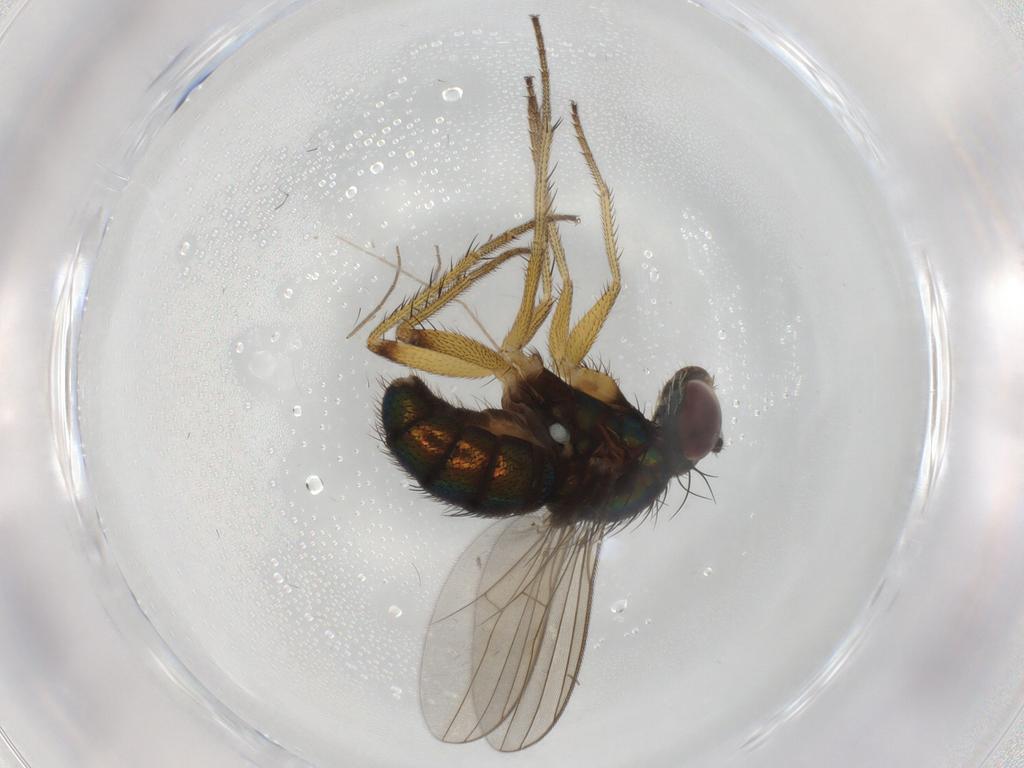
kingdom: Animalia
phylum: Arthropoda
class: Insecta
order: Diptera
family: Dolichopodidae
